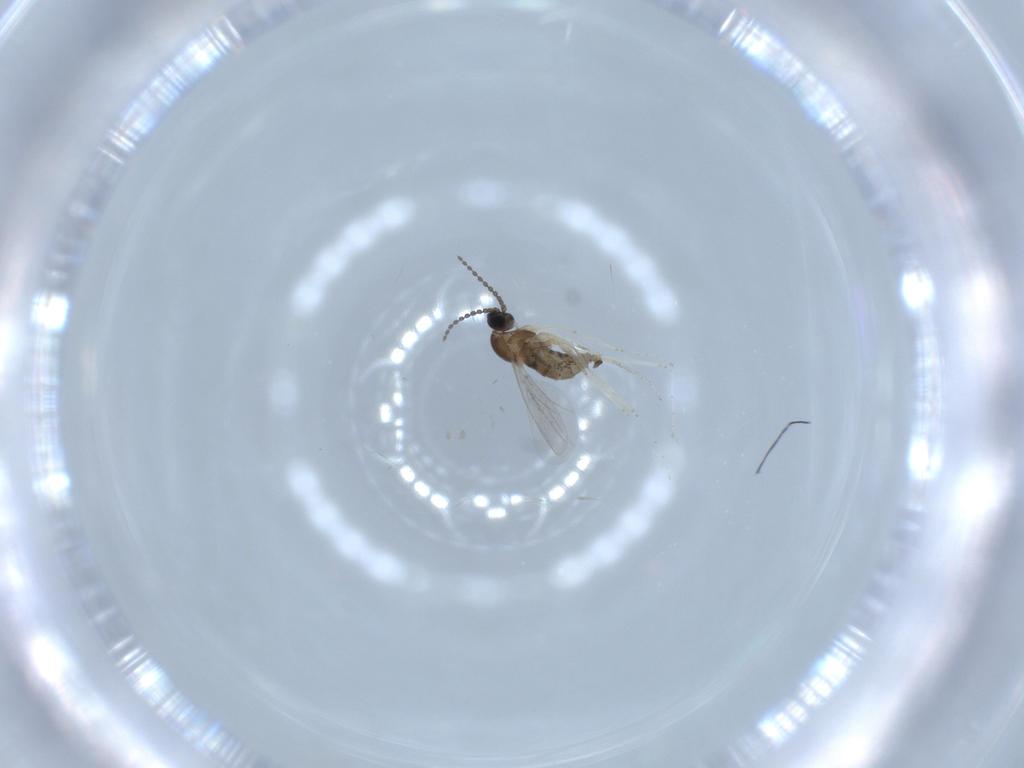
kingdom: Animalia
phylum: Arthropoda
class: Insecta
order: Diptera
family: Cecidomyiidae
